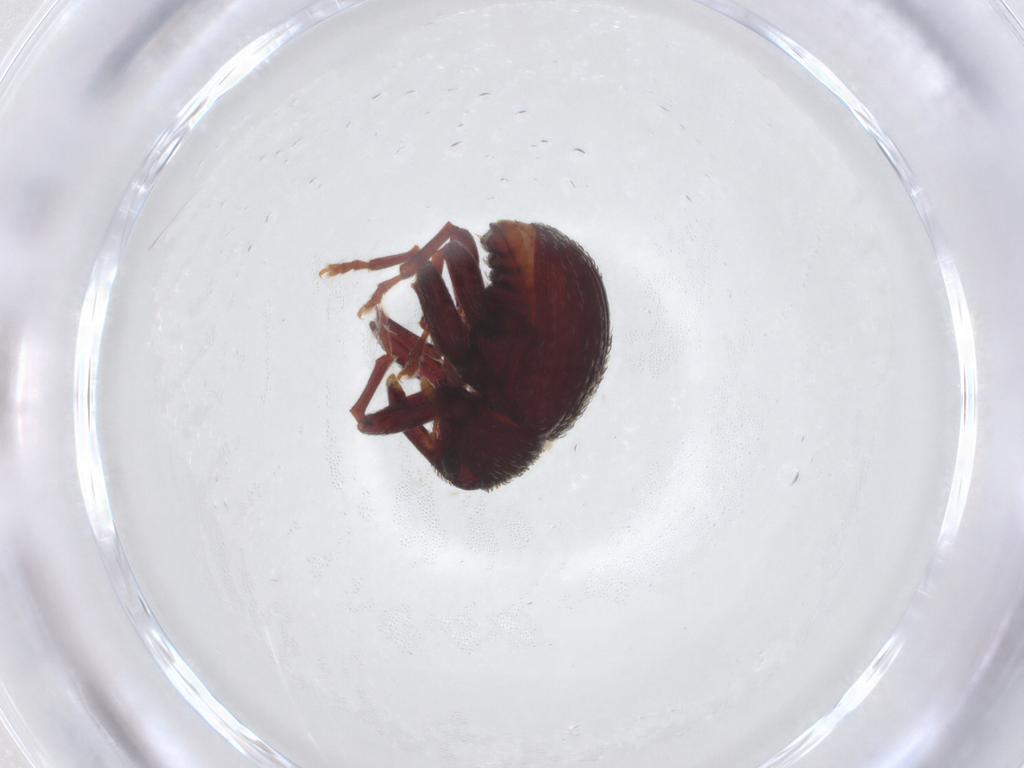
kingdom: Animalia
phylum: Arthropoda
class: Insecta
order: Coleoptera
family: Curculionidae
